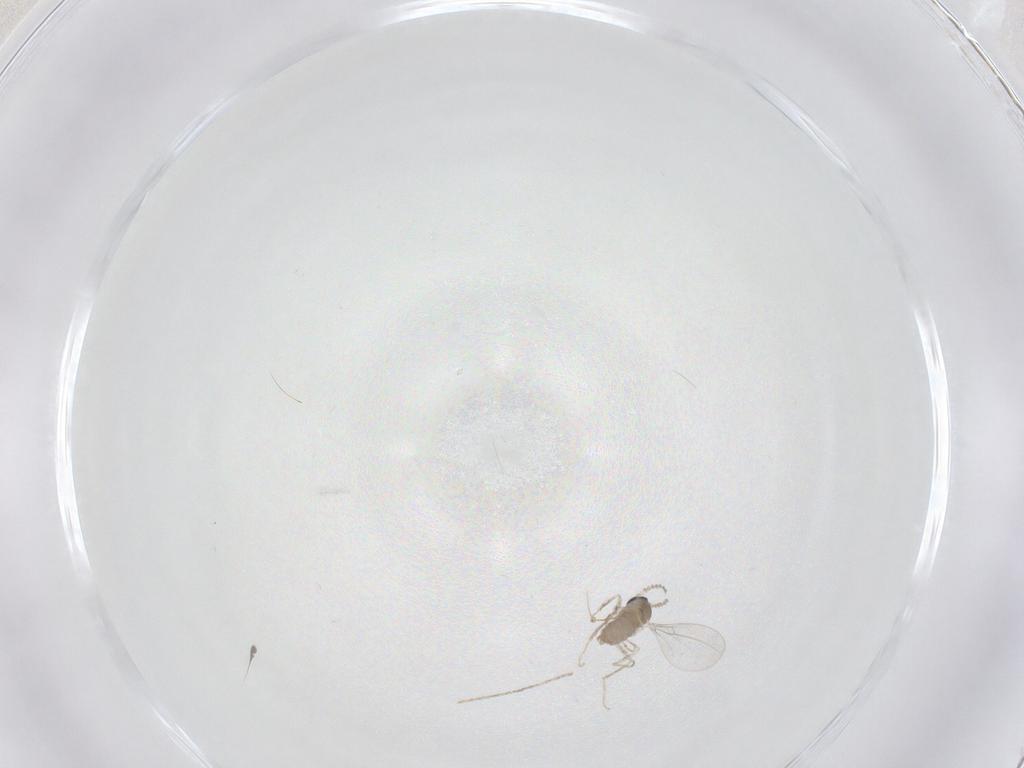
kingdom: Animalia
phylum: Arthropoda
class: Insecta
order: Diptera
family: Cecidomyiidae
